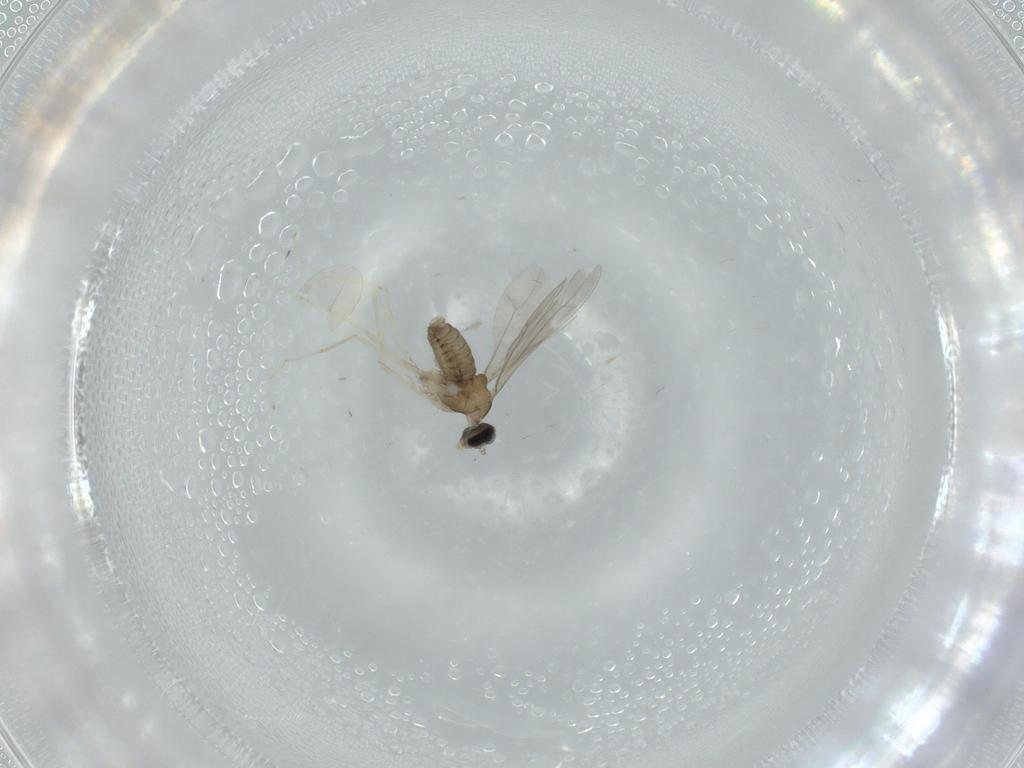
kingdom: Animalia
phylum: Arthropoda
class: Insecta
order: Diptera
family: Cecidomyiidae
